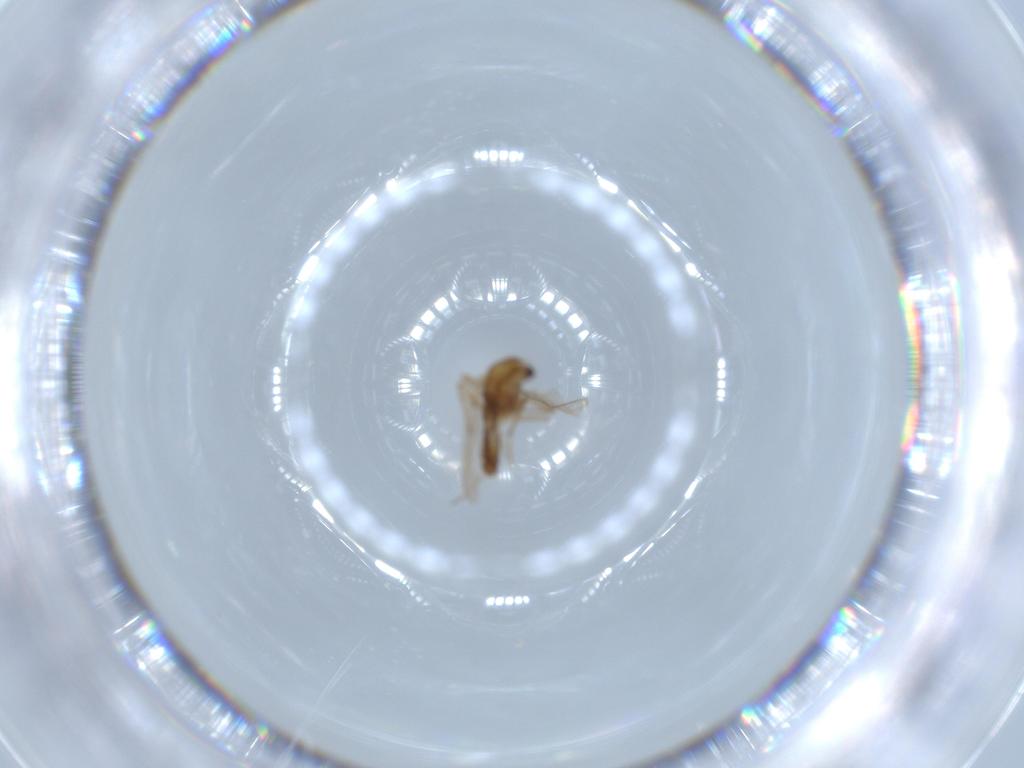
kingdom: Animalia
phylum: Arthropoda
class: Insecta
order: Diptera
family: Chironomidae
